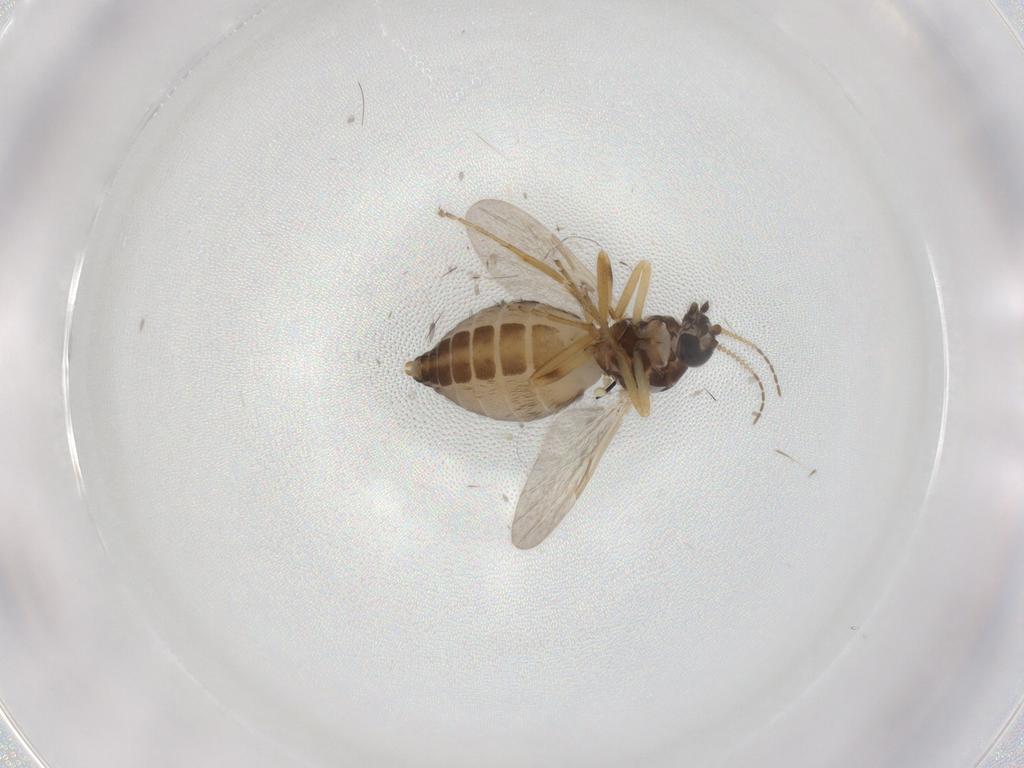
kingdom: Animalia
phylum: Arthropoda
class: Insecta
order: Diptera
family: Ceratopogonidae
